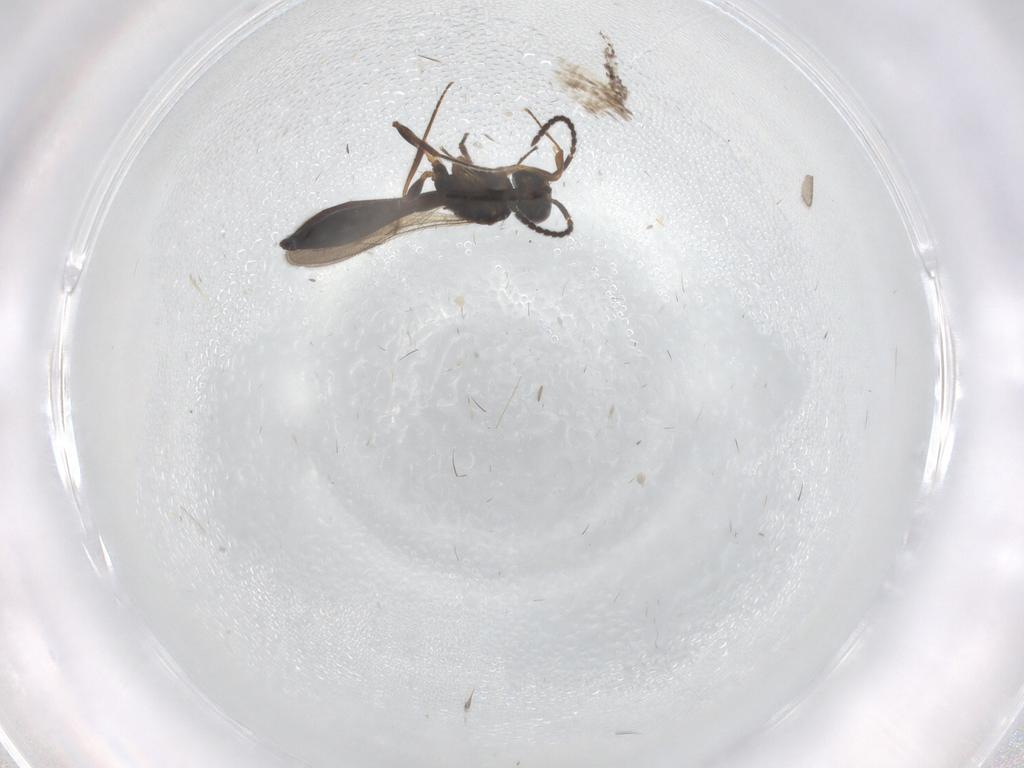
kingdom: Animalia
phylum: Arthropoda
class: Insecta
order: Hymenoptera
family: Scelionidae
